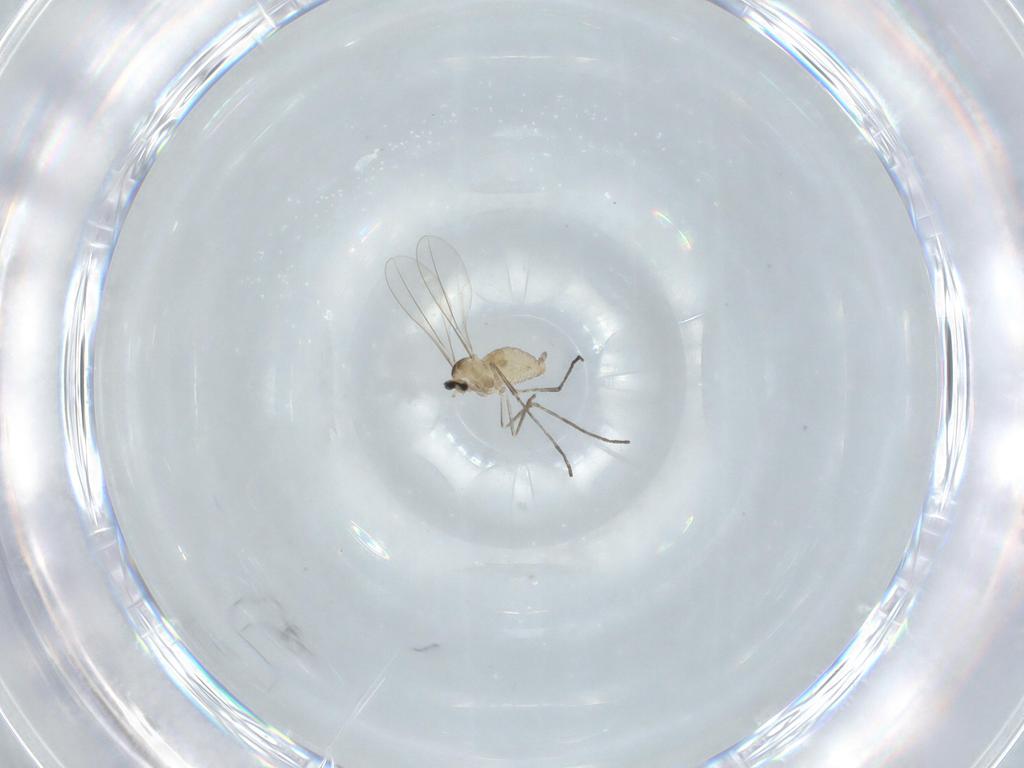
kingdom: Animalia
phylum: Arthropoda
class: Insecta
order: Diptera
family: Cecidomyiidae
